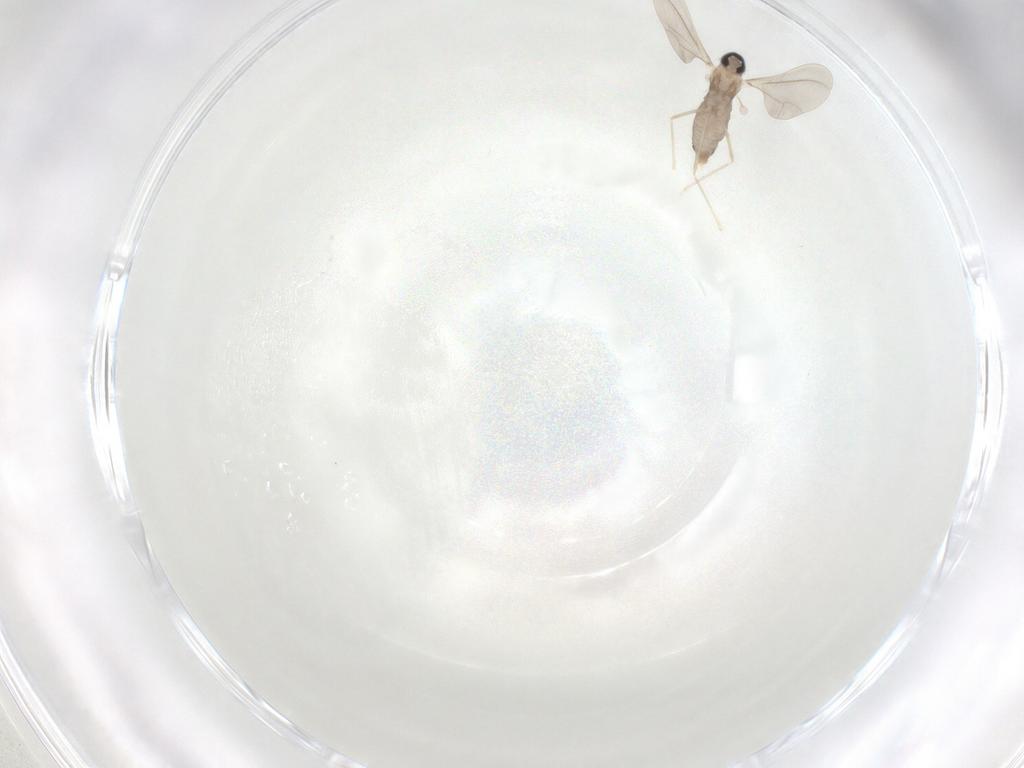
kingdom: Animalia
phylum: Arthropoda
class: Insecta
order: Diptera
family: Cecidomyiidae
